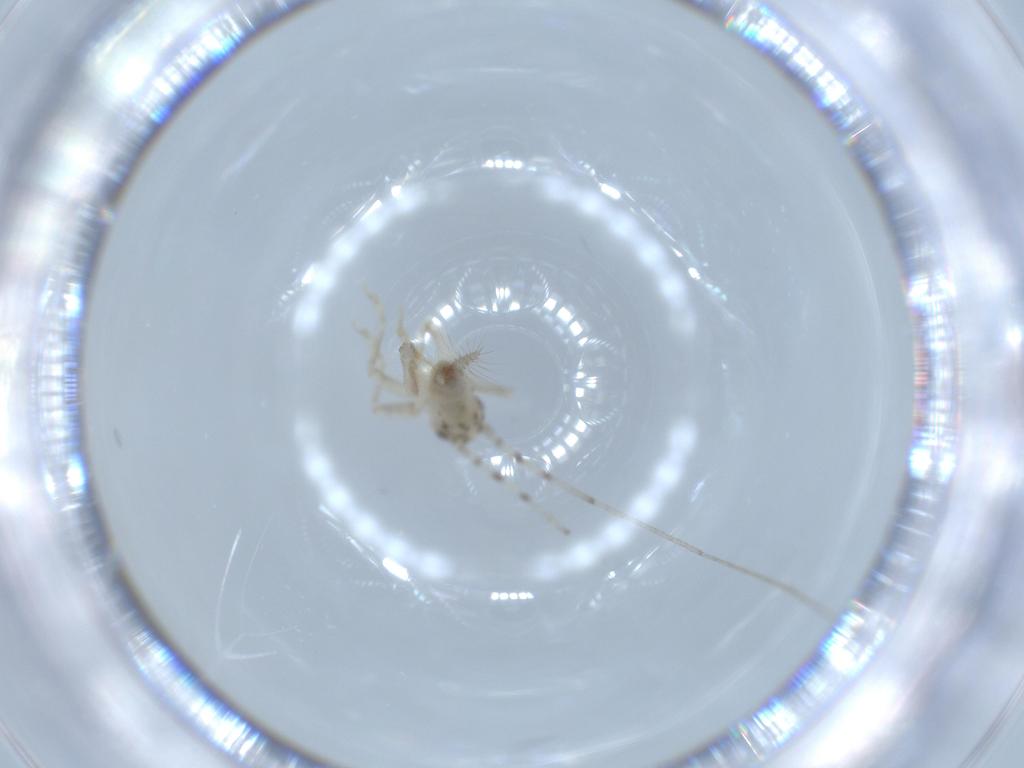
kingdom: Animalia
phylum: Arthropoda
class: Insecta
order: Orthoptera
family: Trigonidiidae
